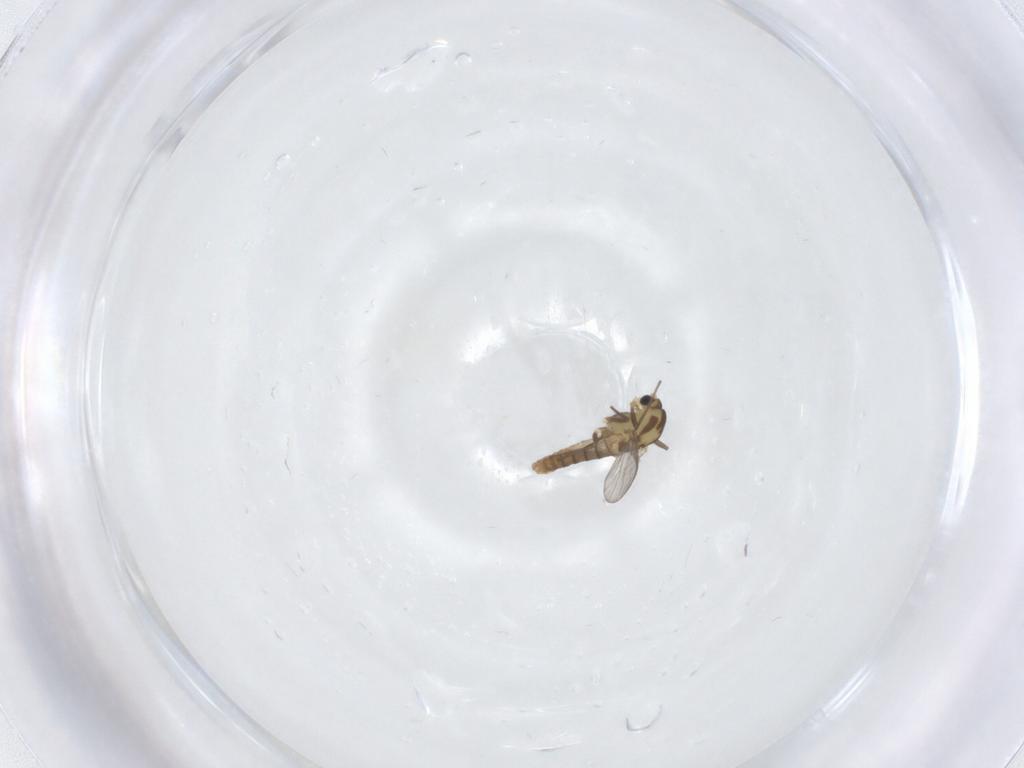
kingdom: Animalia
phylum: Arthropoda
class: Insecta
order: Diptera
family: Chironomidae
